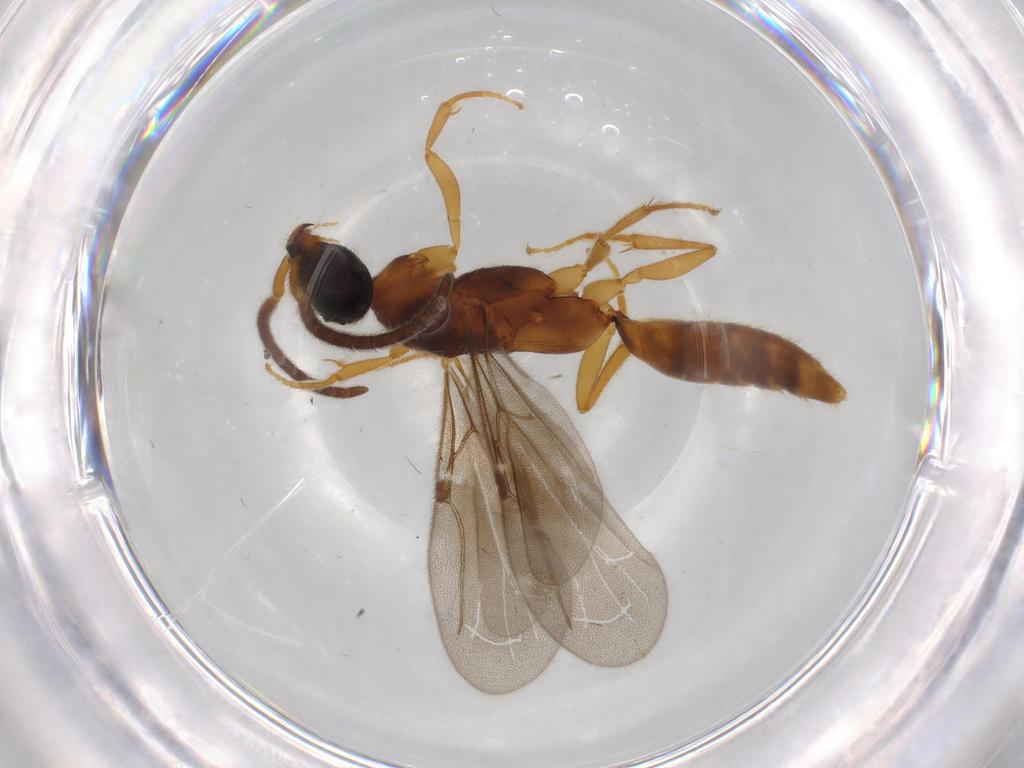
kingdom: Animalia
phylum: Arthropoda
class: Insecta
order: Hymenoptera
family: Bethylidae
